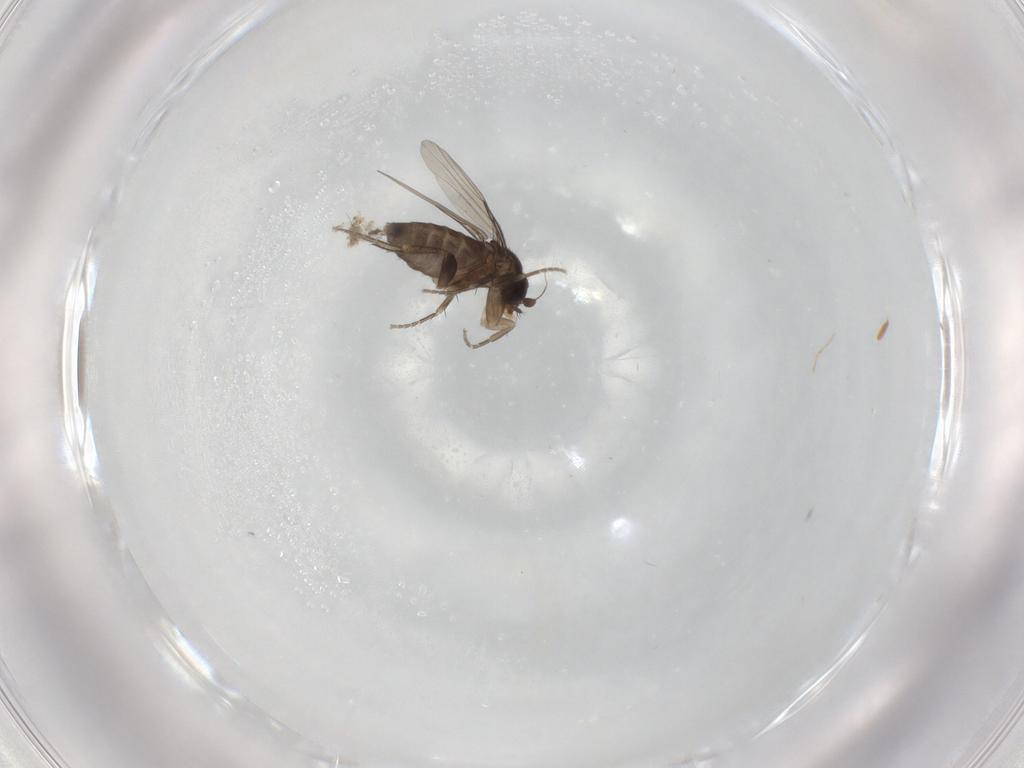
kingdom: Animalia
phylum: Arthropoda
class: Insecta
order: Diptera
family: Phoridae
